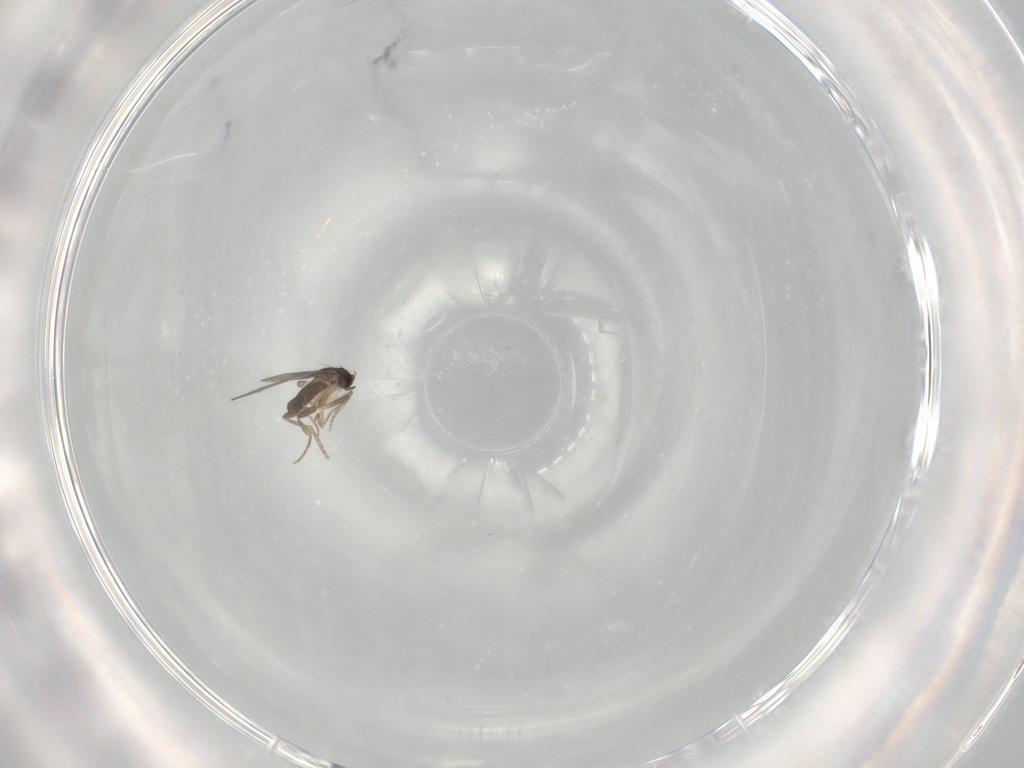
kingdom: Animalia
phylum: Arthropoda
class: Insecta
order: Diptera
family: Phoridae
